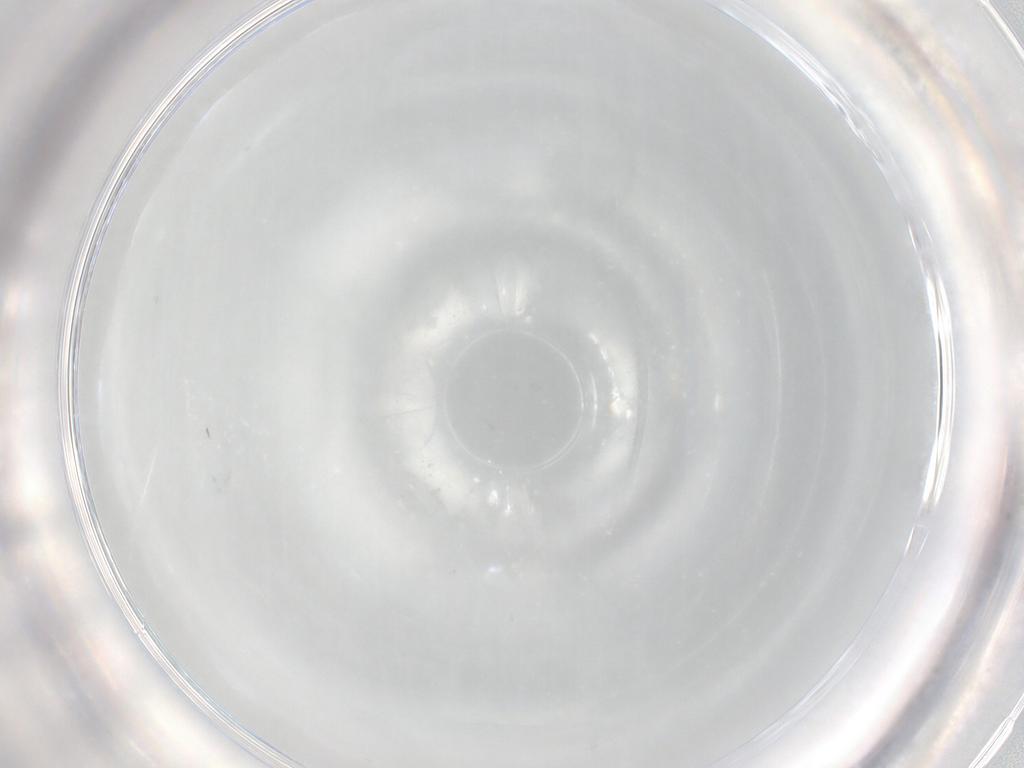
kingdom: Animalia
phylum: Arthropoda
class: Arachnida
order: Trombidiformes
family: Erythraeidae
